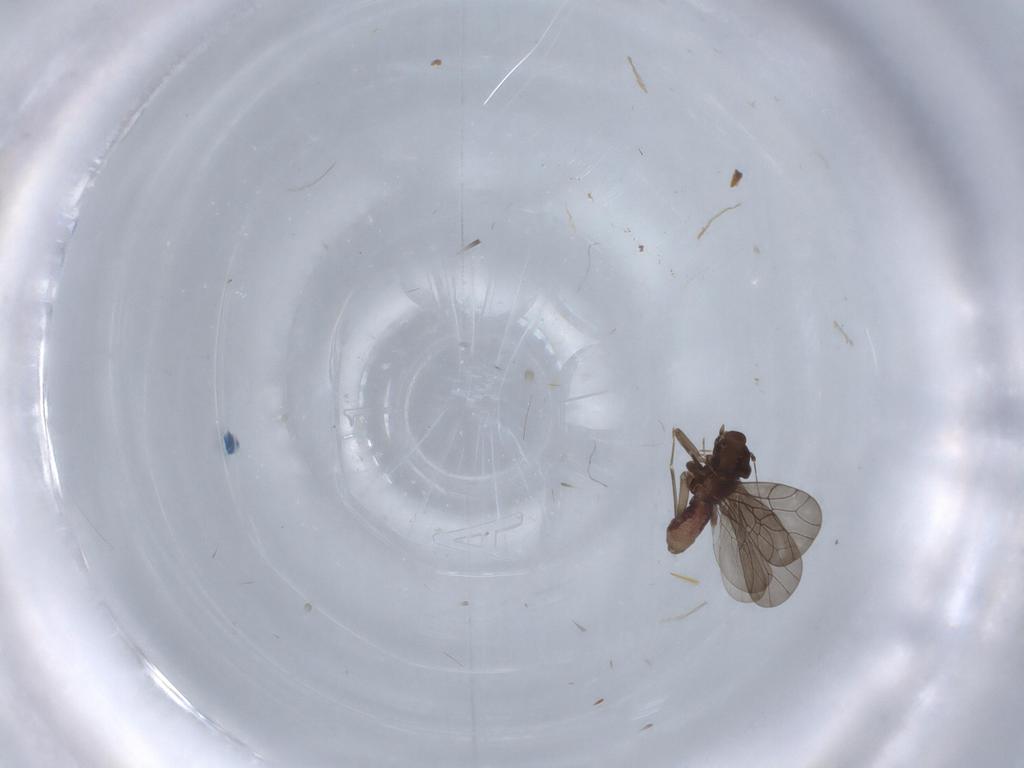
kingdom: Animalia
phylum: Arthropoda
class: Insecta
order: Psocodea
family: Lepidopsocidae
